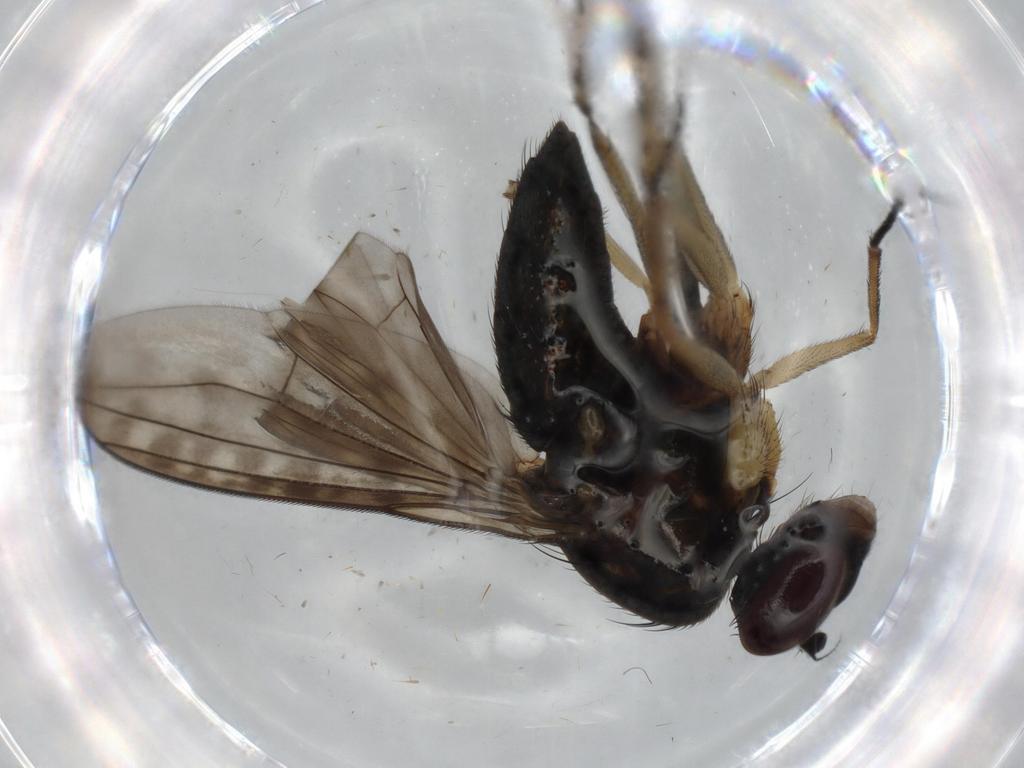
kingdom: Animalia
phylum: Arthropoda
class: Insecta
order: Diptera
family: Dolichopodidae
